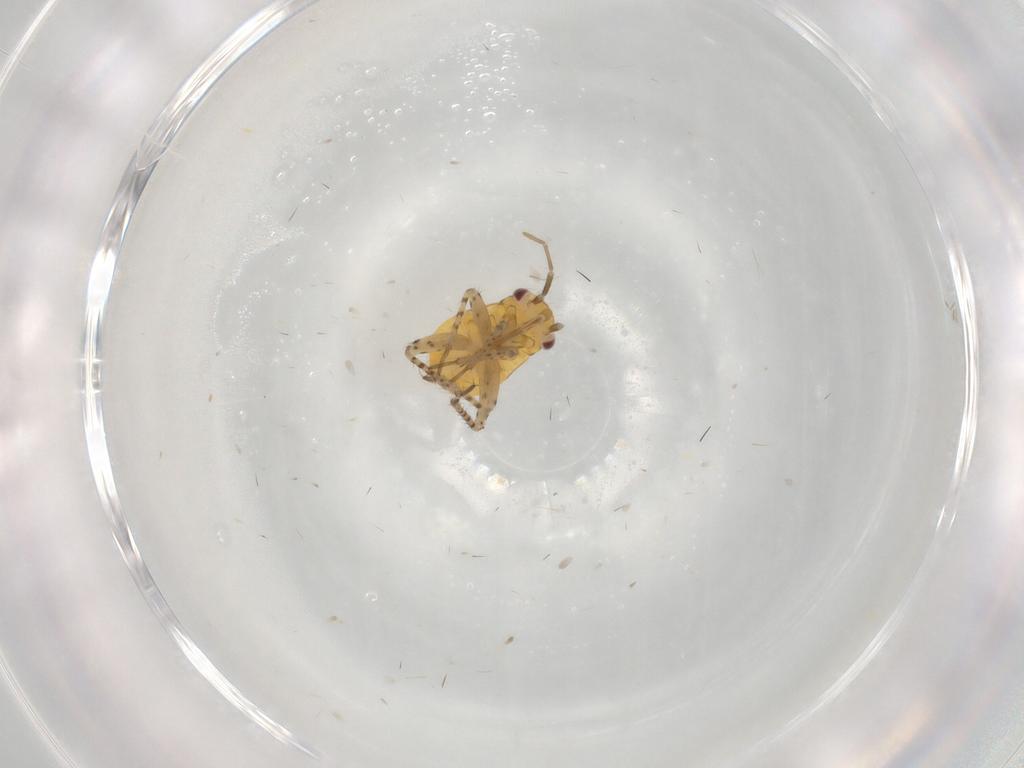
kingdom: Animalia
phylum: Arthropoda
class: Insecta
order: Hemiptera
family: Miridae
